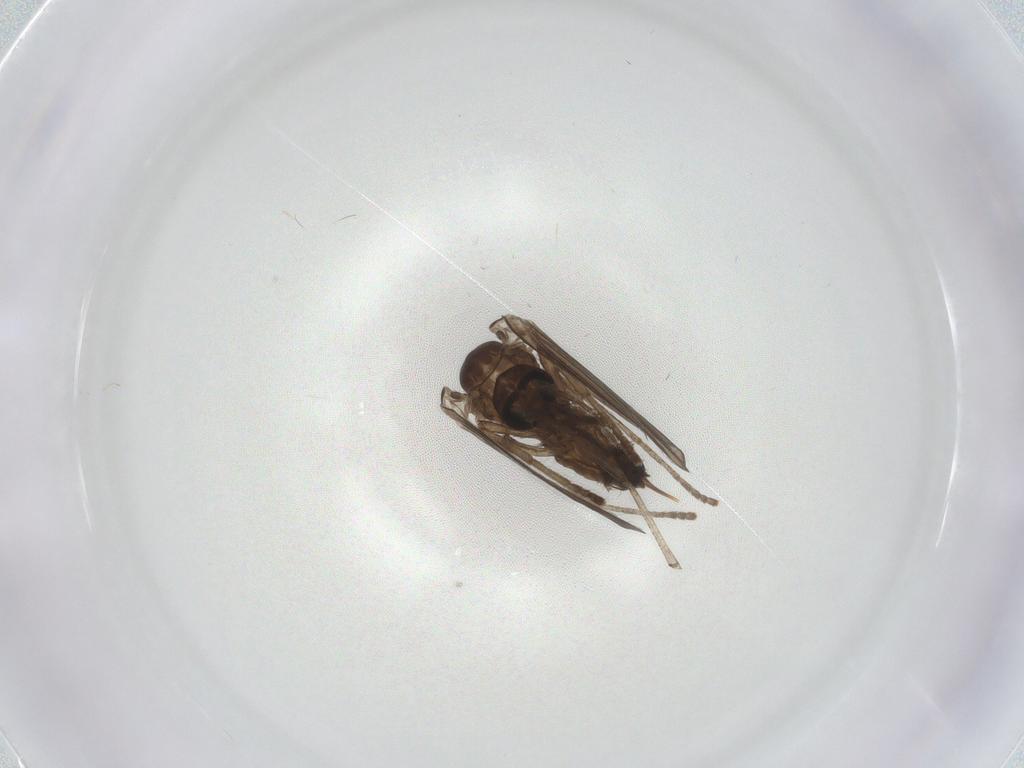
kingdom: Animalia
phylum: Arthropoda
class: Insecta
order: Diptera
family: Psychodidae
